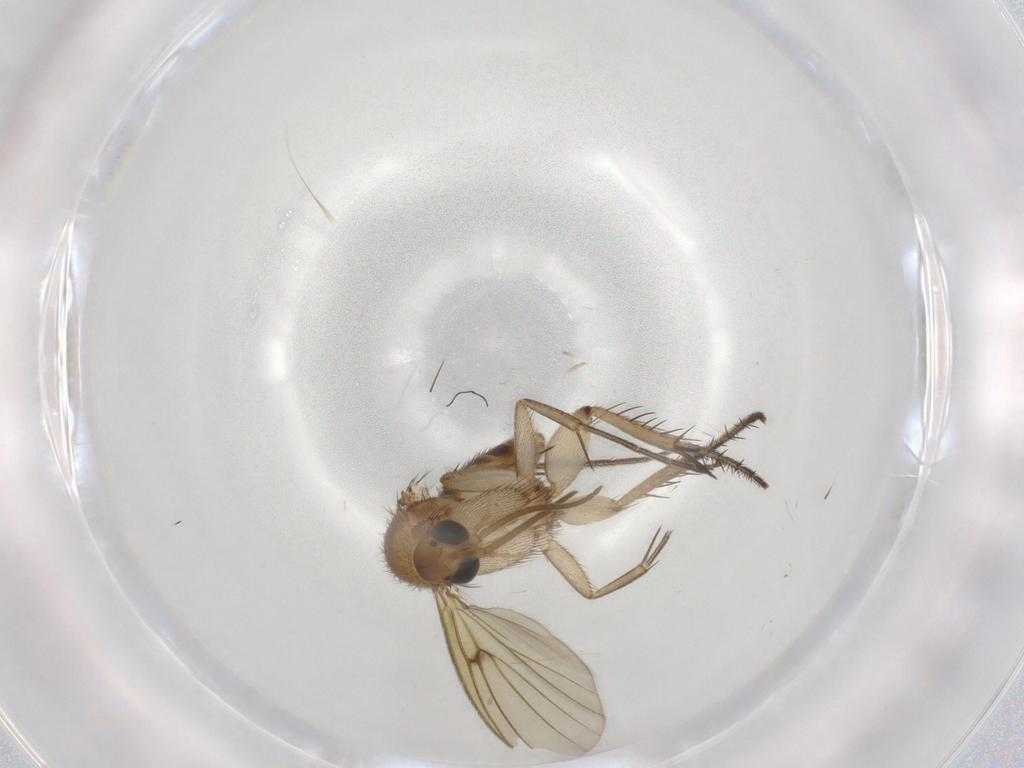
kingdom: Animalia
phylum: Arthropoda
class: Insecta
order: Diptera
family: Mycetophilidae
